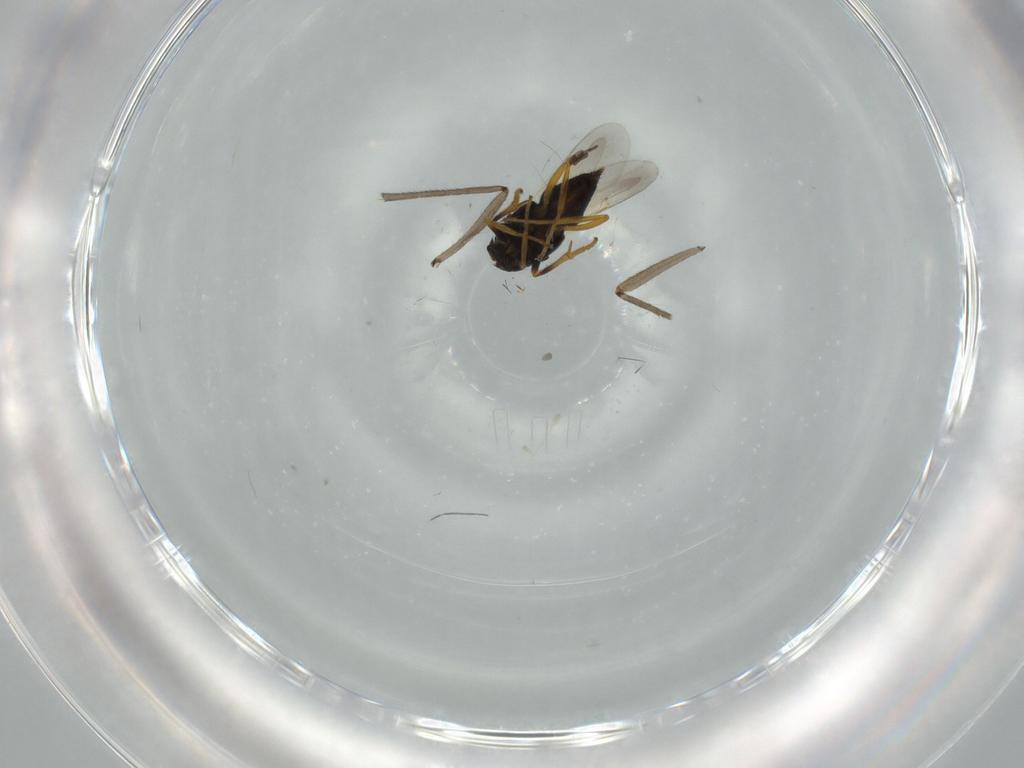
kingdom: Animalia
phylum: Arthropoda
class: Insecta
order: Hymenoptera
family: Encyrtidae
